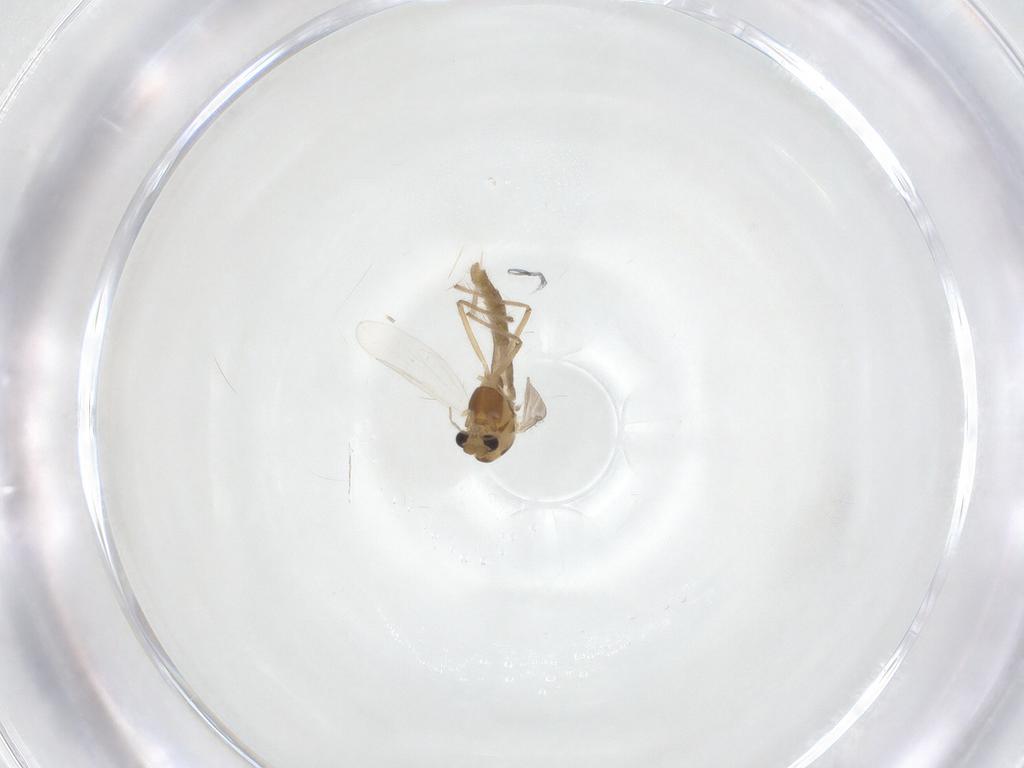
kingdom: Animalia
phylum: Arthropoda
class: Insecta
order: Diptera
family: Chironomidae
